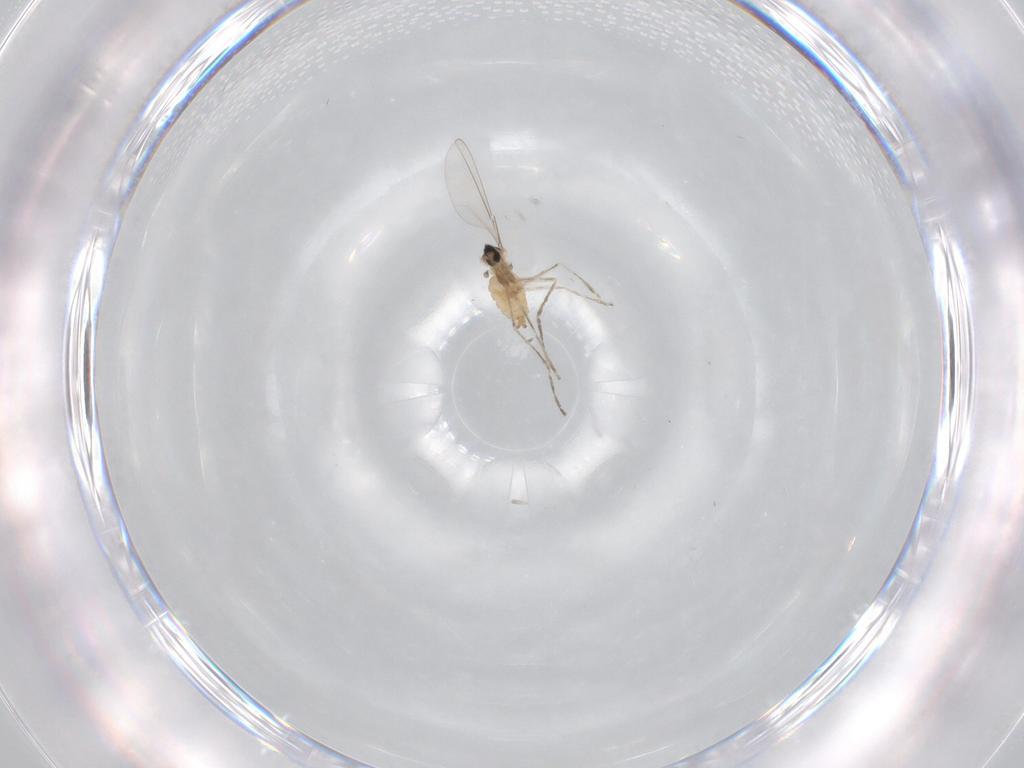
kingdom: Animalia
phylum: Arthropoda
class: Insecta
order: Diptera
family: Cecidomyiidae
